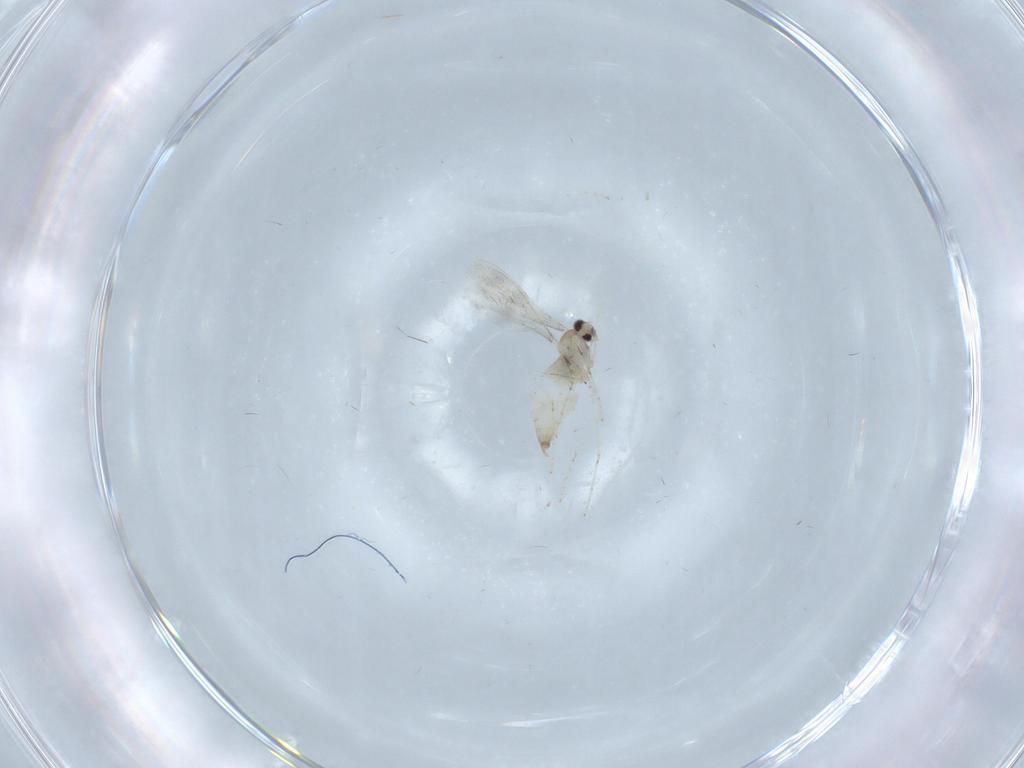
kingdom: Animalia
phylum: Arthropoda
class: Insecta
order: Diptera
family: Cecidomyiidae
